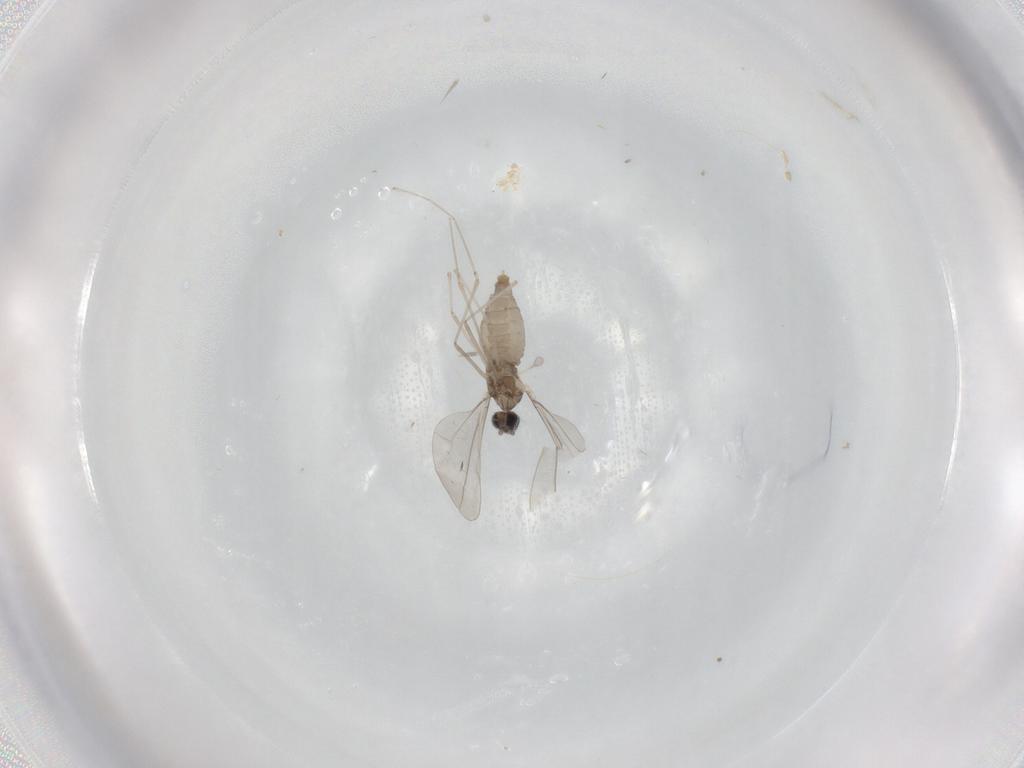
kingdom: Animalia
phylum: Arthropoda
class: Insecta
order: Diptera
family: Cecidomyiidae
